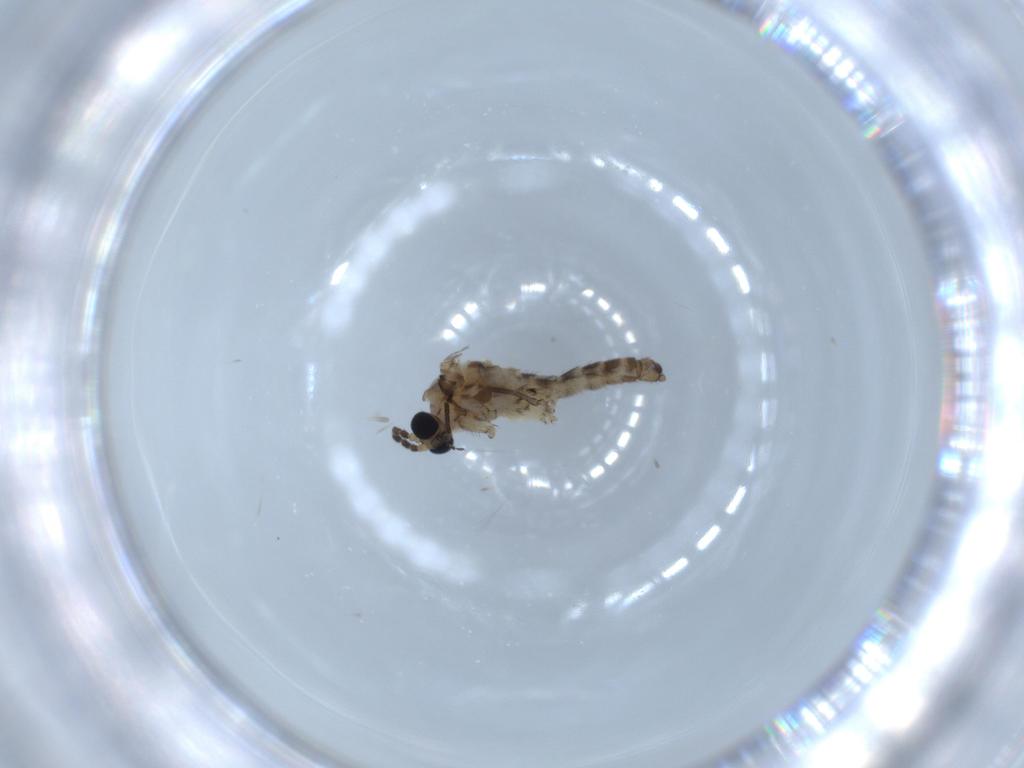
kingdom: Animalia
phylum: Arthropoda
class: Insecta
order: Diptera
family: Sciaridae
